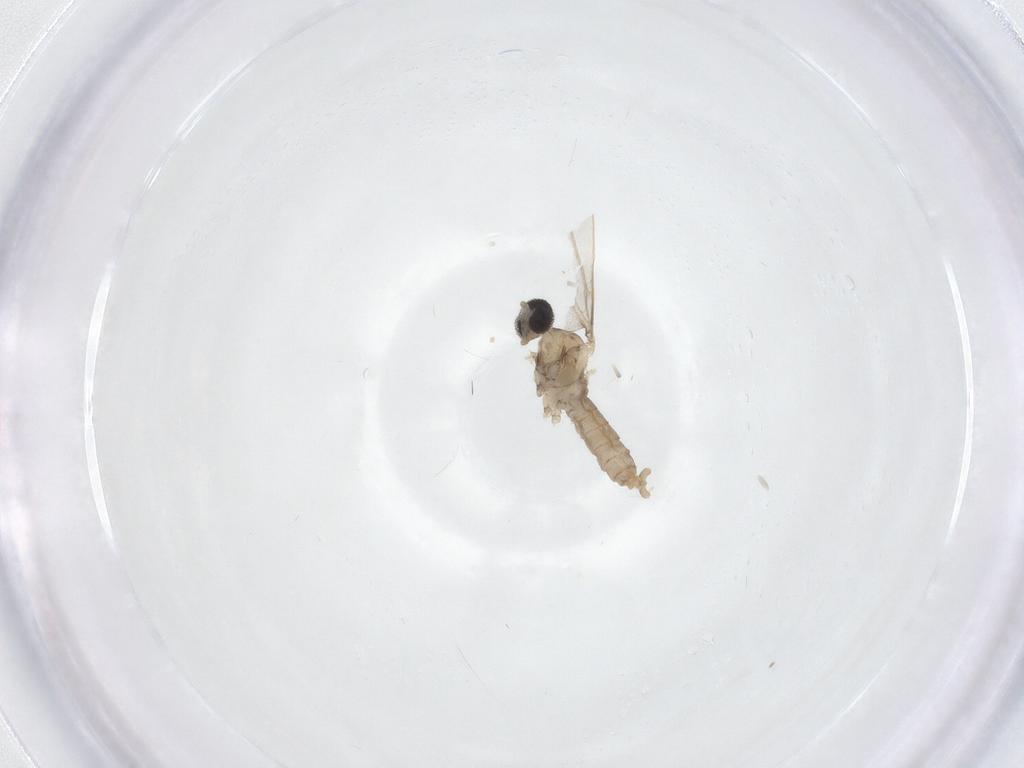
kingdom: Animalia
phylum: Arthropoda
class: Insecta
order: Diptera
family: Cecidomyiidae
